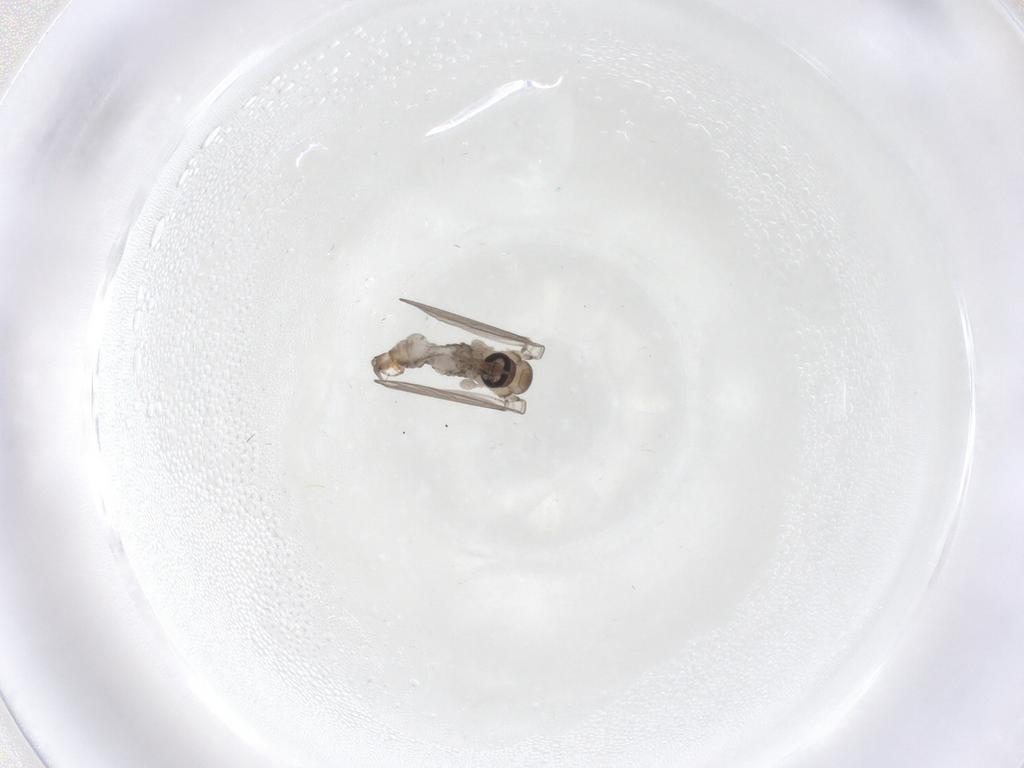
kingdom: Animalia
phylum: Arthropoda
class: Insecta
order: Diptera
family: Psychodidae
